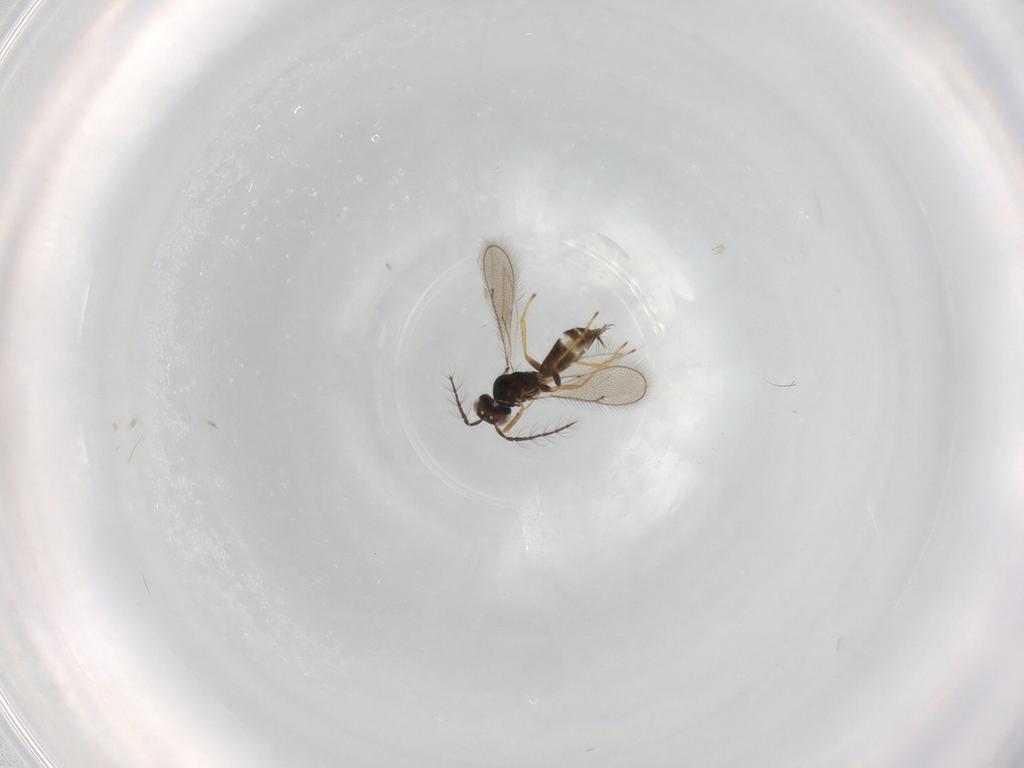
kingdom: Animalia
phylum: Arthropoda
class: Insecta
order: Hymenoptera
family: Eulophidae
